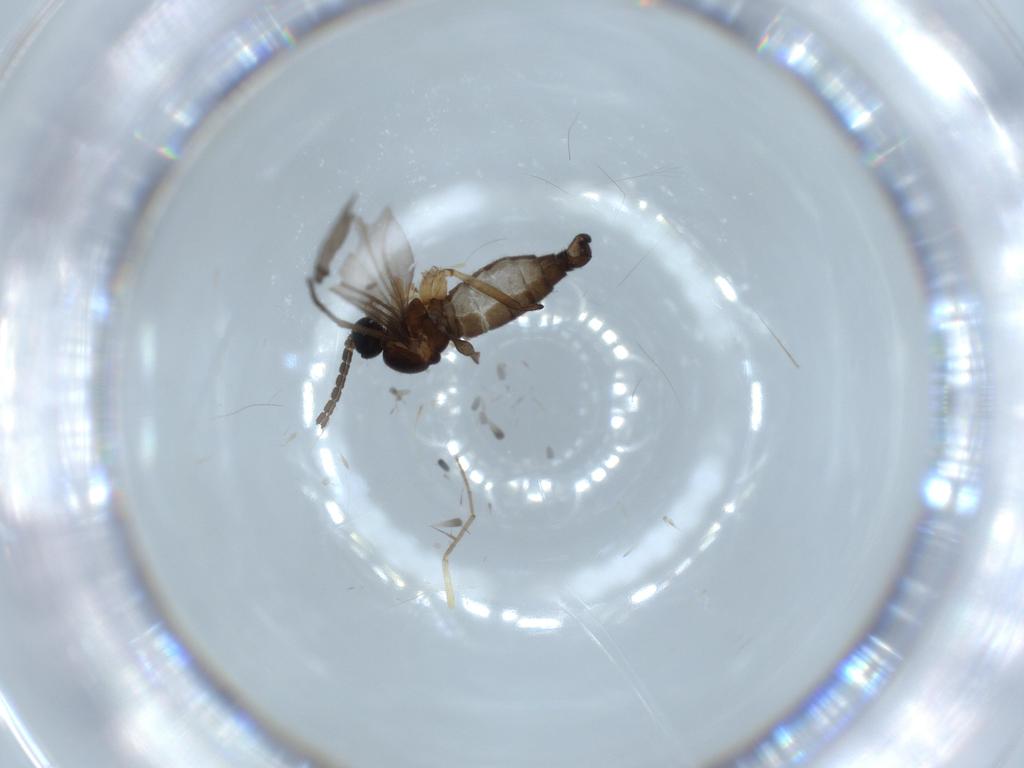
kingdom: Animalia
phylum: Arthropoda
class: Insecta
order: Diptera
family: Sciaridae
